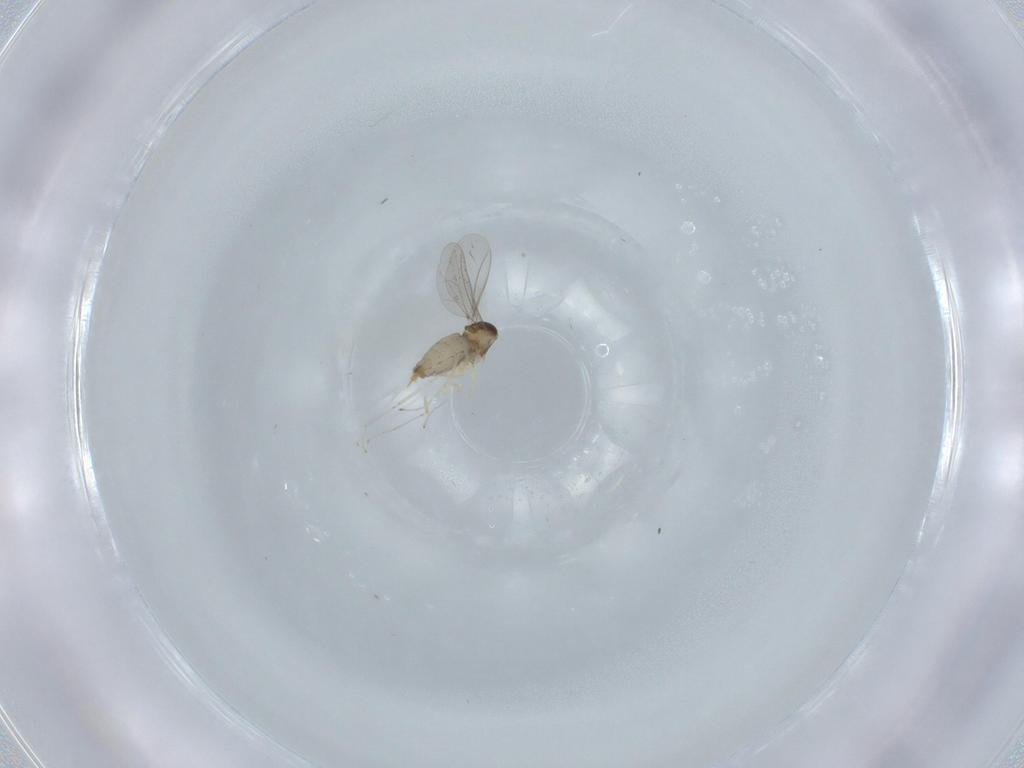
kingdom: Animalia
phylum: Arthropoda
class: Insecta
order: Diptera
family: Cecidomyiidae
